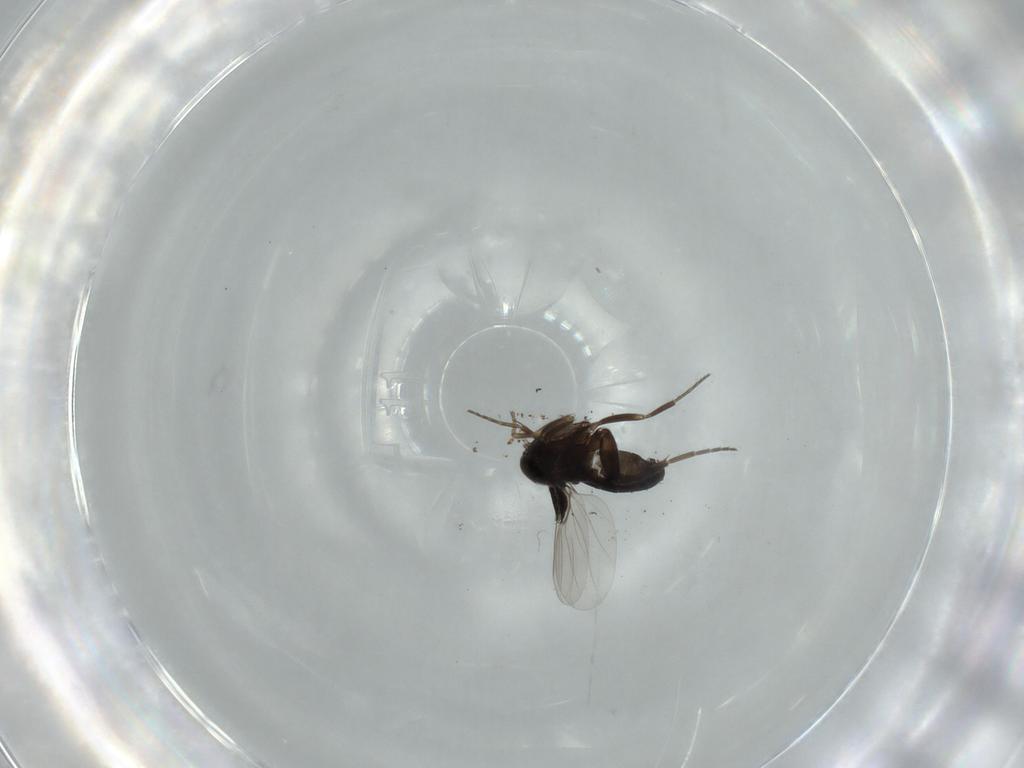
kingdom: Animalia
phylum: Arthropoda
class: Insecta
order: Diptera
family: Phoridae
